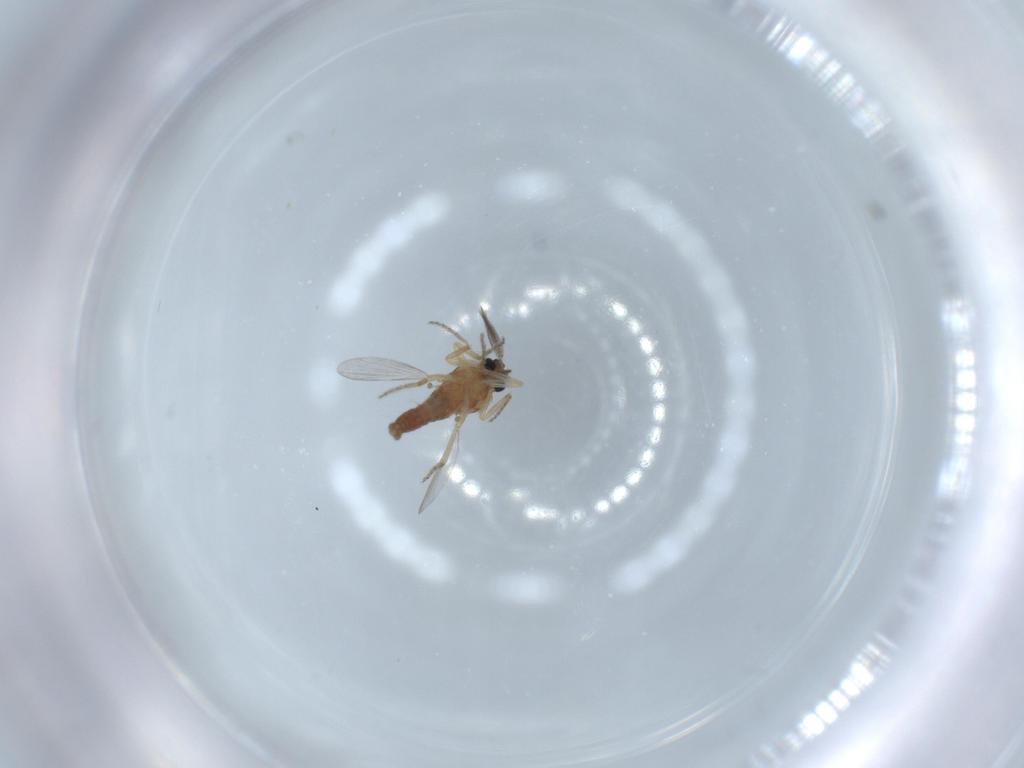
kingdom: Animalia
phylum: Arthropoda
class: Insecta
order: Diptera
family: Ceratopogonidae
